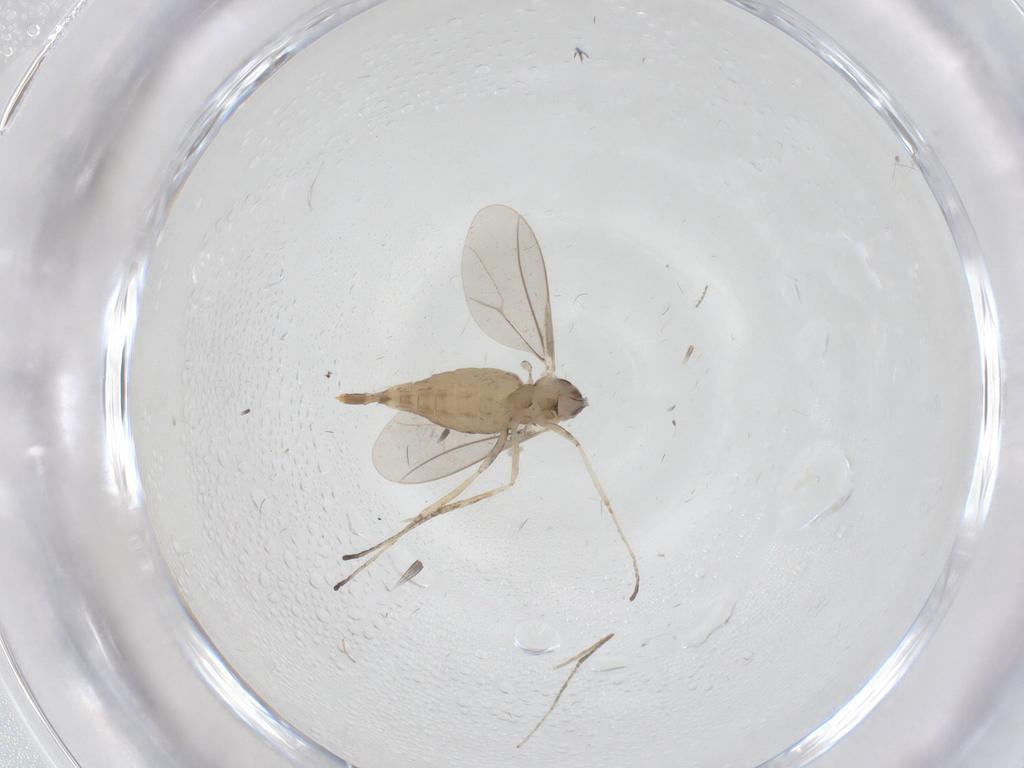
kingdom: Animalia
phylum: Arthropoda
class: Insecta
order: Diptera
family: Cecidomyiidae
